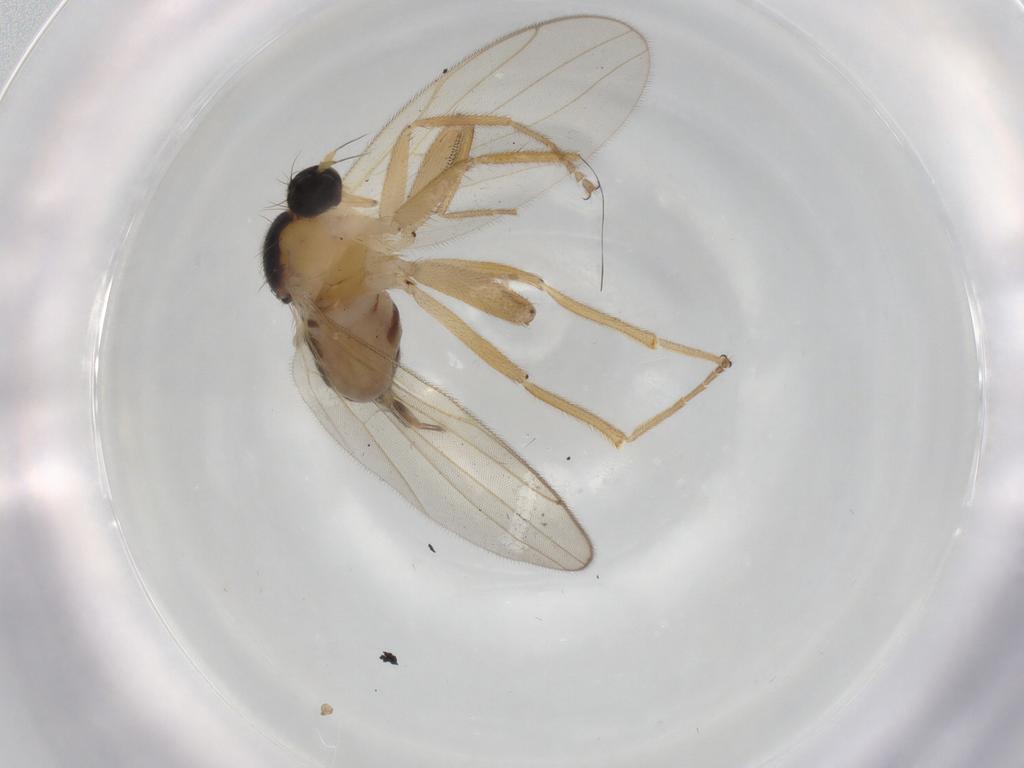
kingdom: Animalia
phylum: Arthropoda
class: Insecta
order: Diptera
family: Hybotidae
